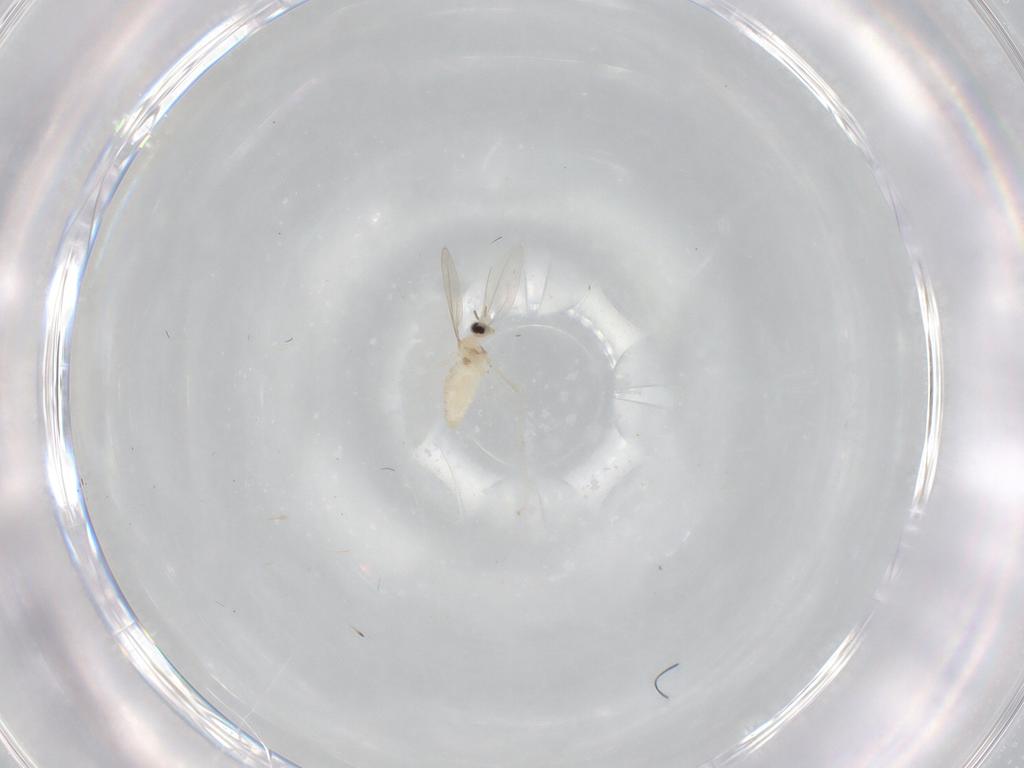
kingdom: Animalia
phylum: Arthropoda
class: Insecta
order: Diptera
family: Cecidomyiidae
